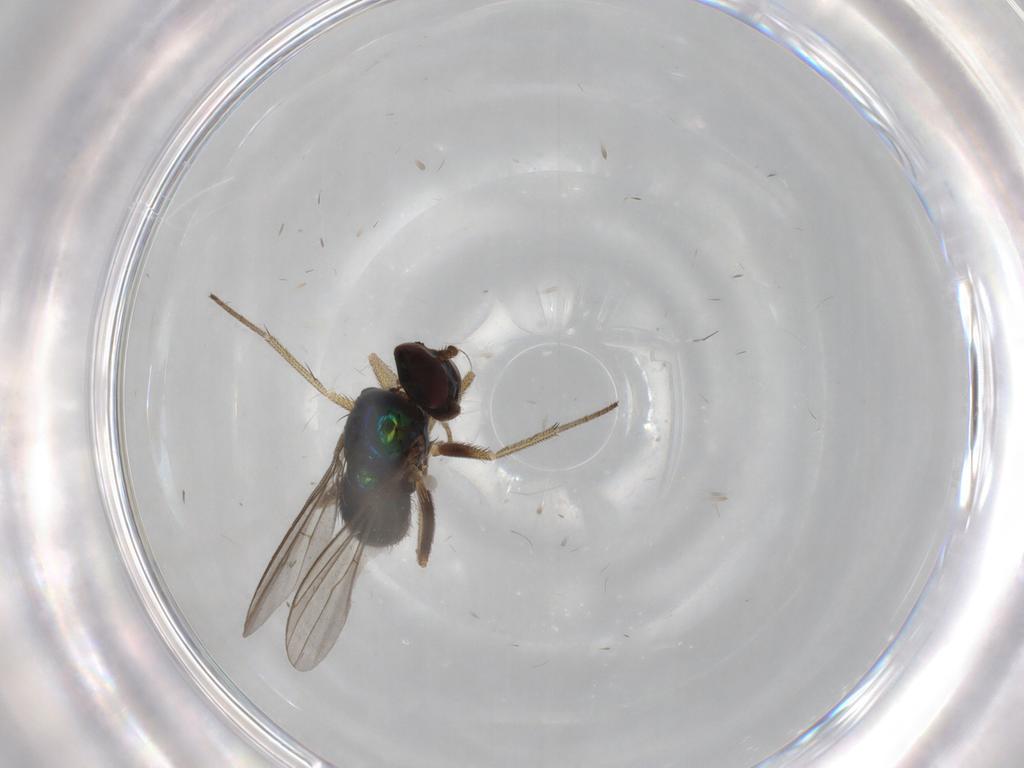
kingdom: Animalia
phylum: Arthropoda
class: Insecta
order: Diptera
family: Dolichopodidae
